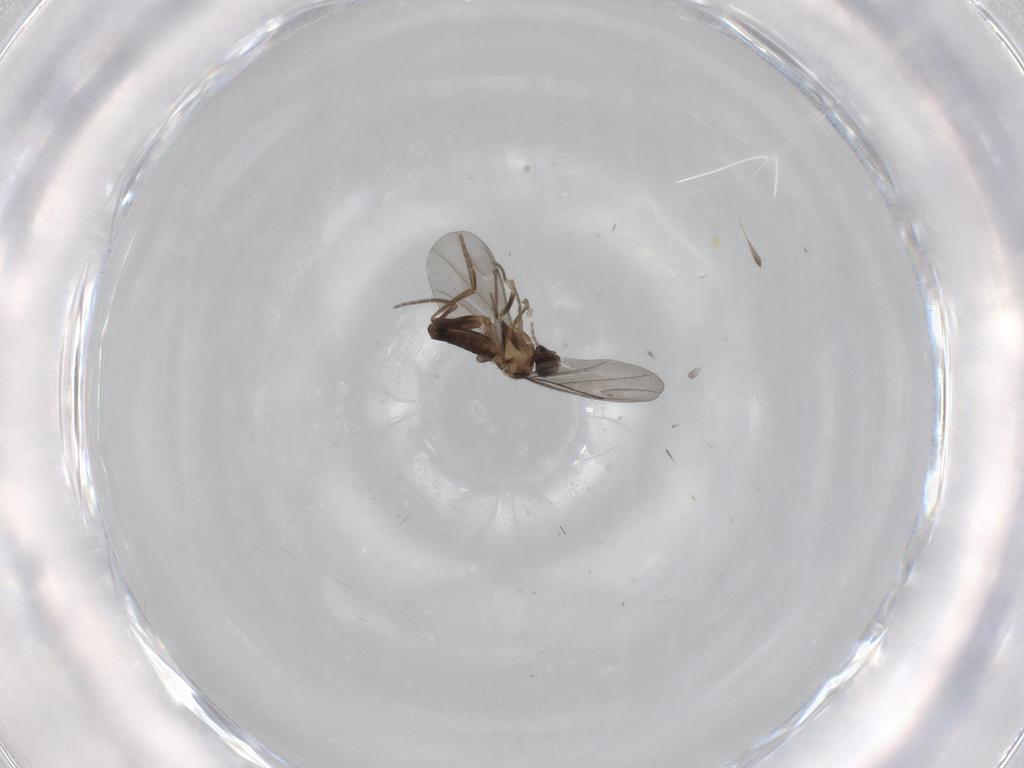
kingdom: Animalia
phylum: Arthropoda
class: Insecta
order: Diptera
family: Phoridae
